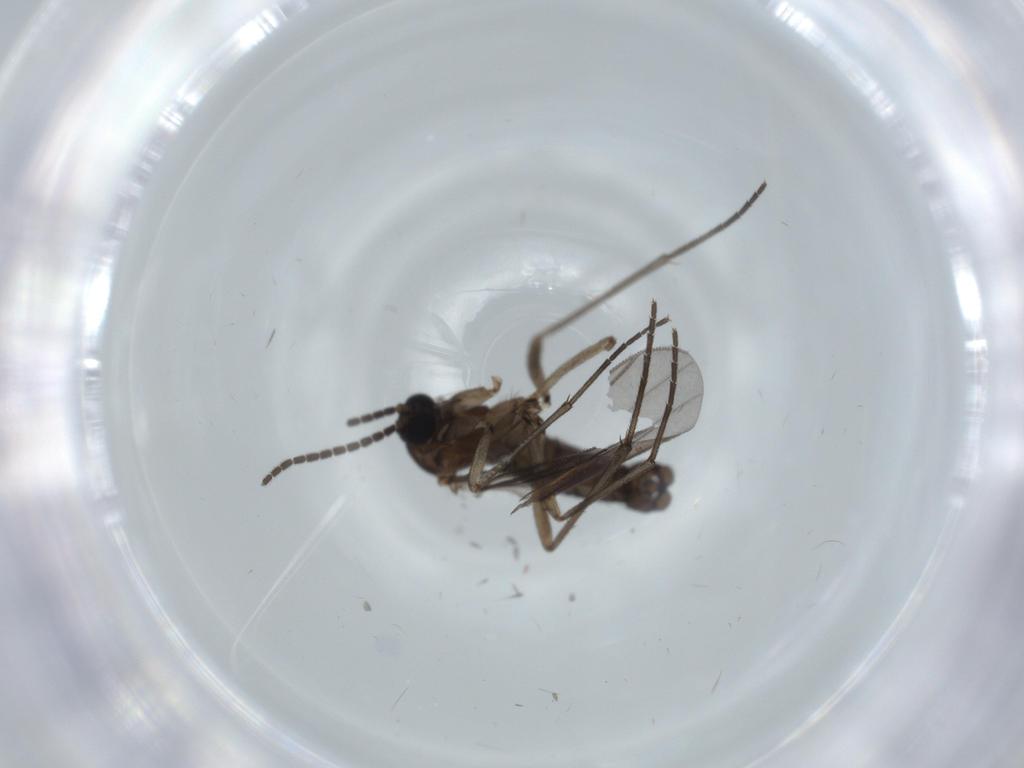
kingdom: Animalia
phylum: Arthropoda
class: Insecta
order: Diptera
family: Sciaridae
